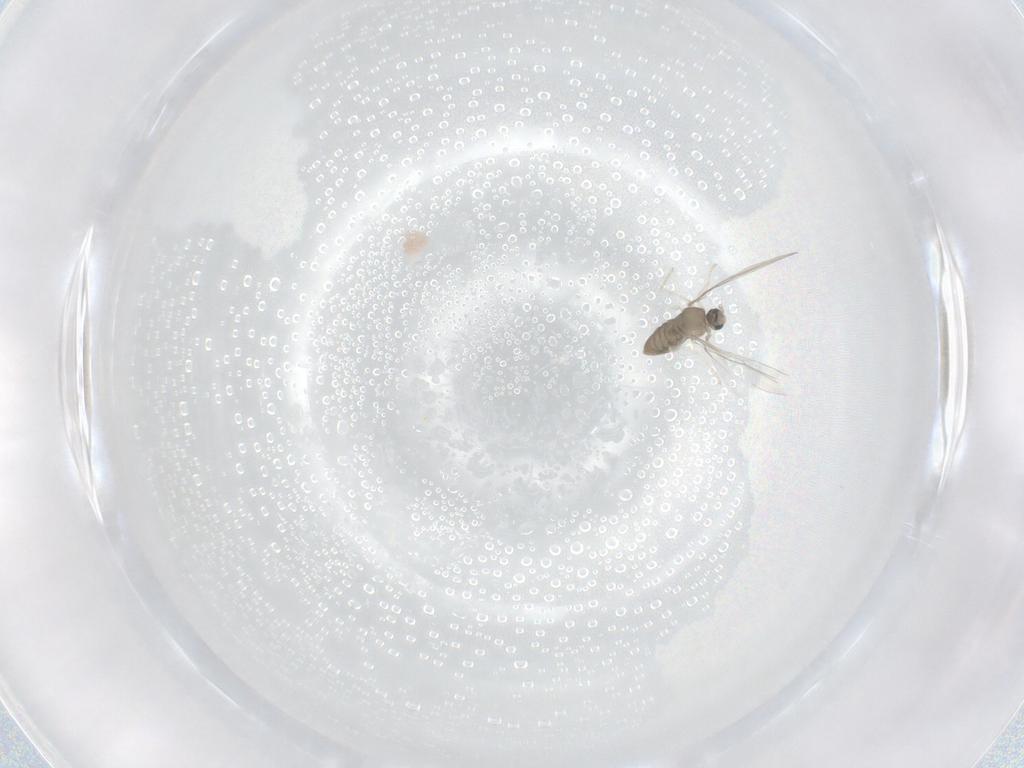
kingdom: Animalia
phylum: Arthropoda
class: Insecta
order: Diptera
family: Cecidomyiidae
